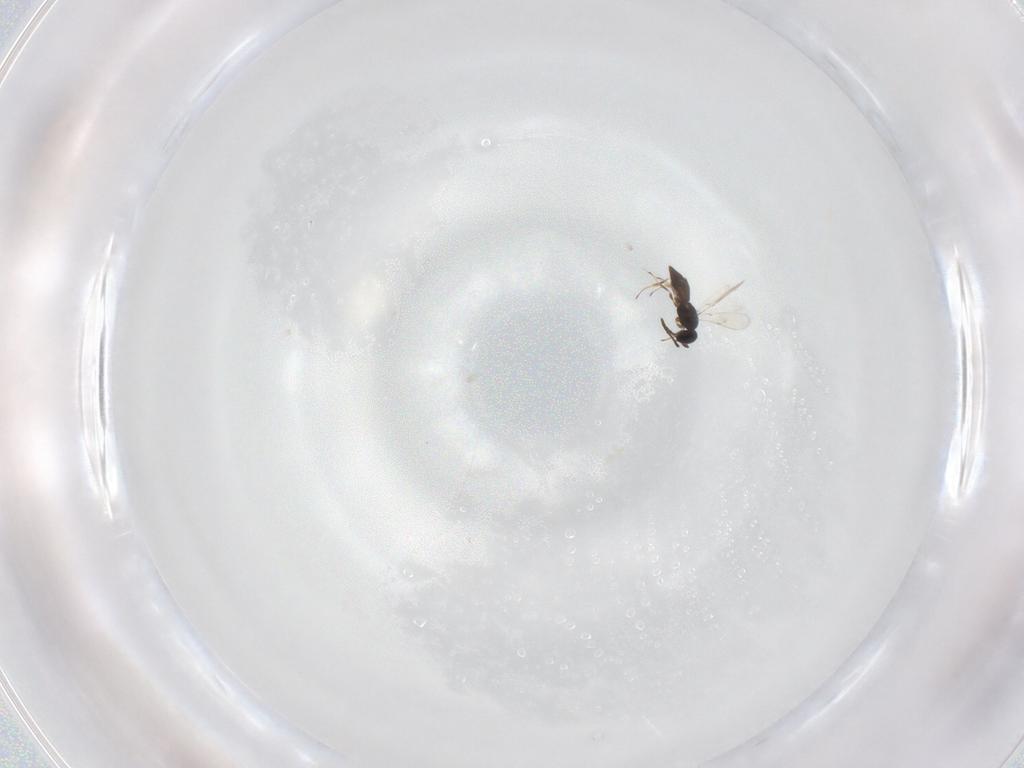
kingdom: Animalia
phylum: Arthropoda
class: Insecta
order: Hymenoptera
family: Scelionidae
